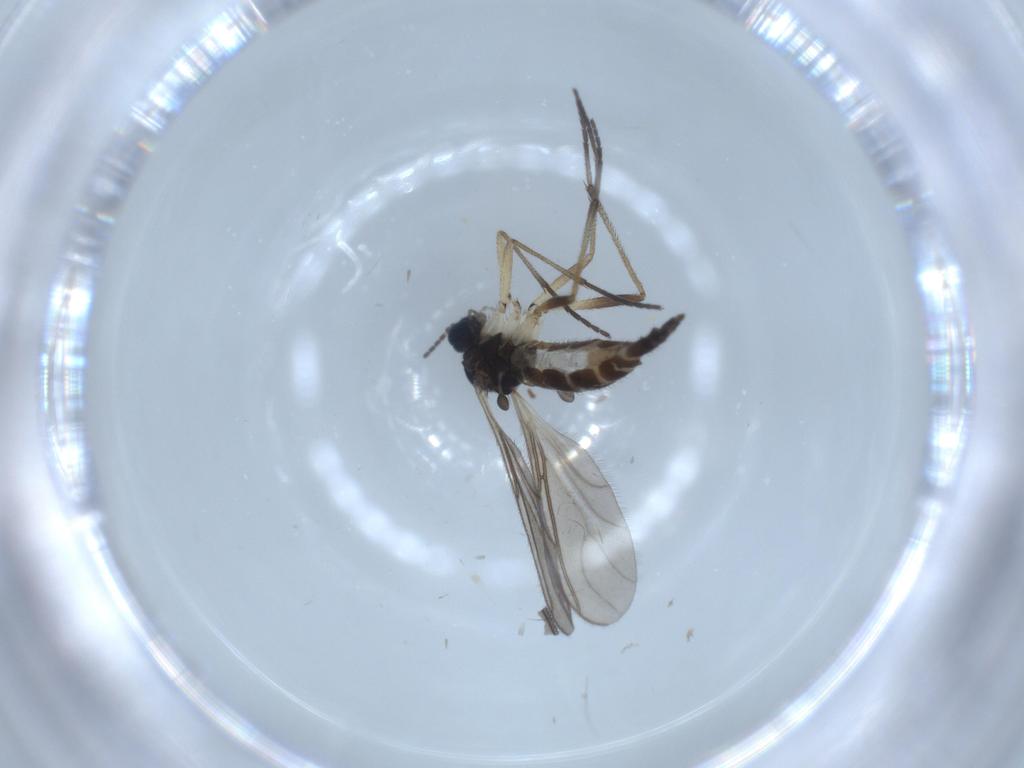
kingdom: Animalia
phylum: Arthropoda
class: Insecta
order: Diptera
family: Sciaridae
